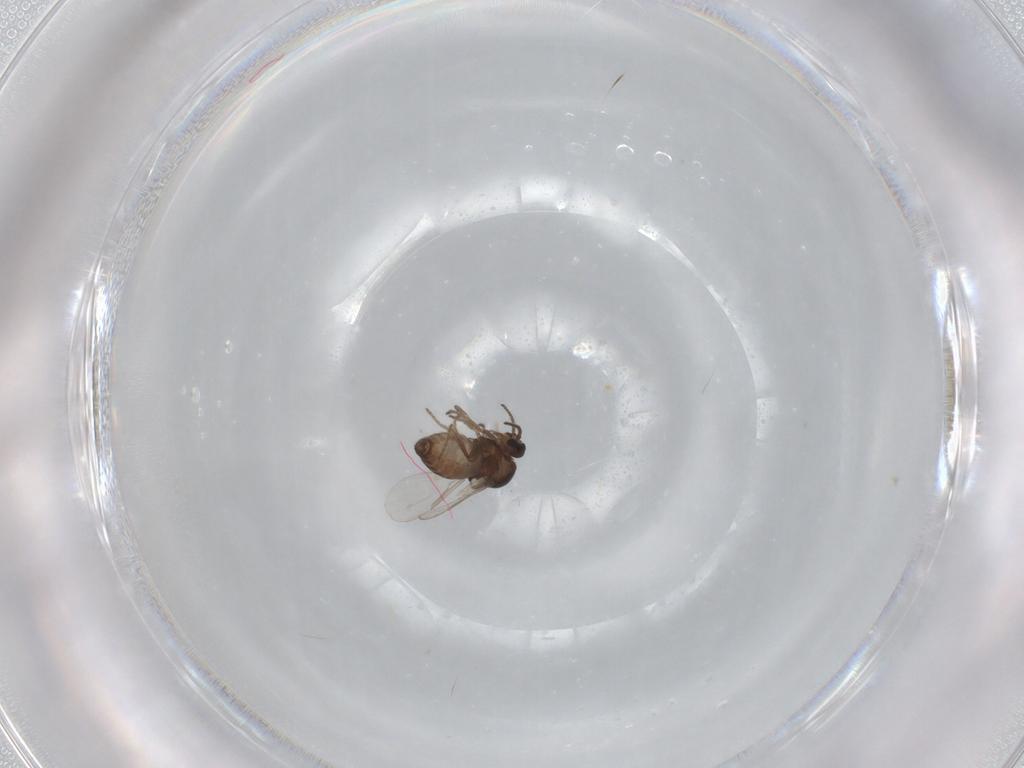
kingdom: Animalia
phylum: Arthropoda
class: Insecta
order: Diptera
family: Ceratopogonidae
